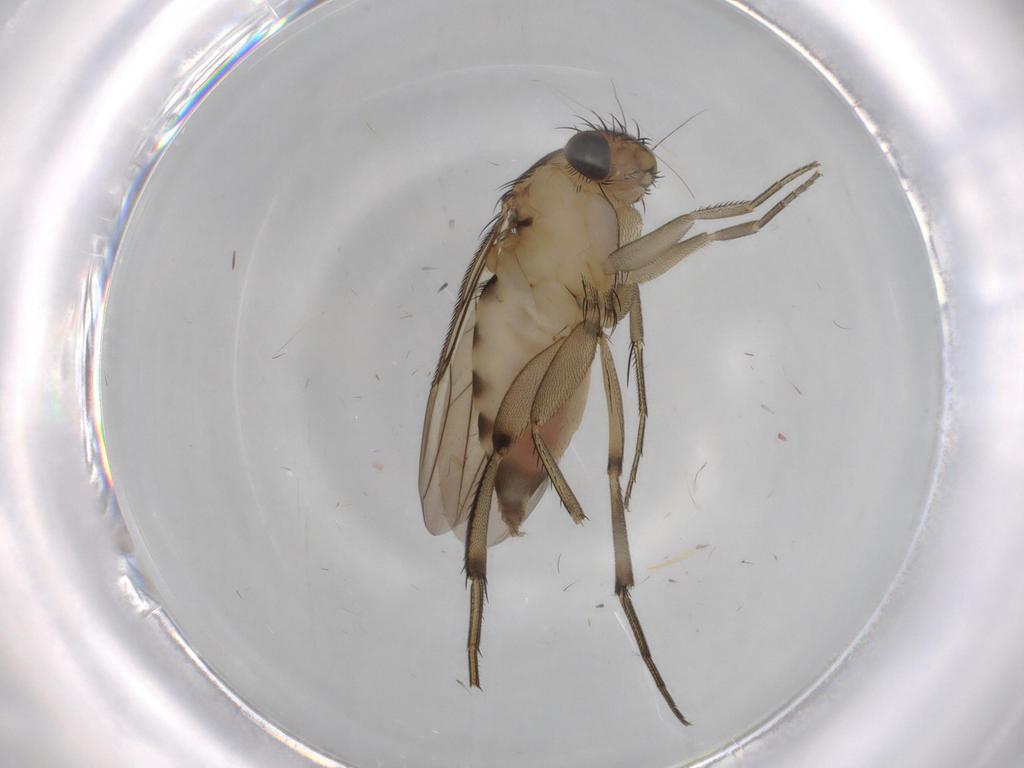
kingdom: Animalia
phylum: Arthropoda
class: Insecta
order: Diptera
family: Phoridae
